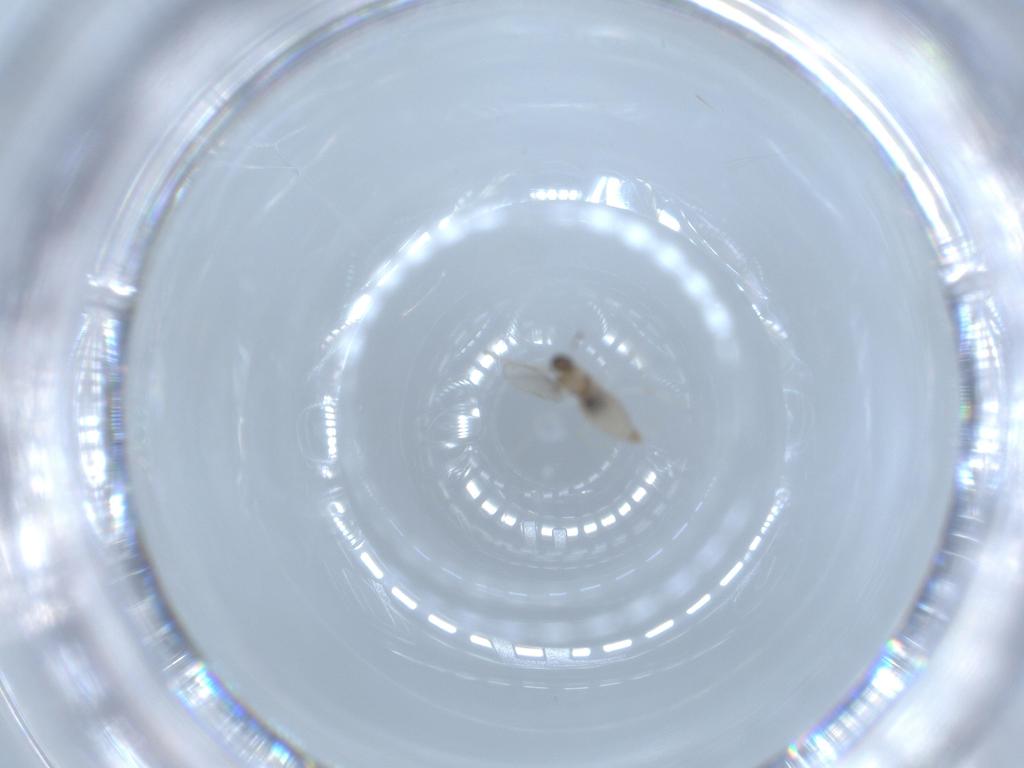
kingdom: Animalia
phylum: Arthropoda
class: Insecta
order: Diptera
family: Cecidomyiidae
